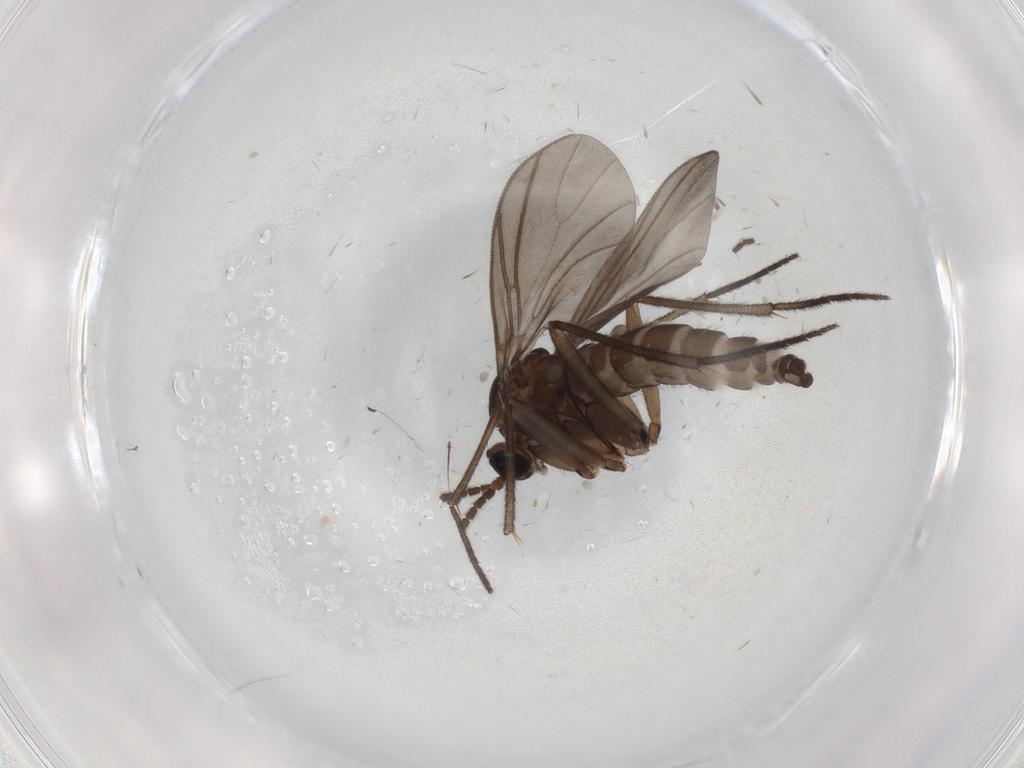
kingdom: Animalia
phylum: Arthropoda
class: Insecta
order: Diptera
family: Sciaridae
